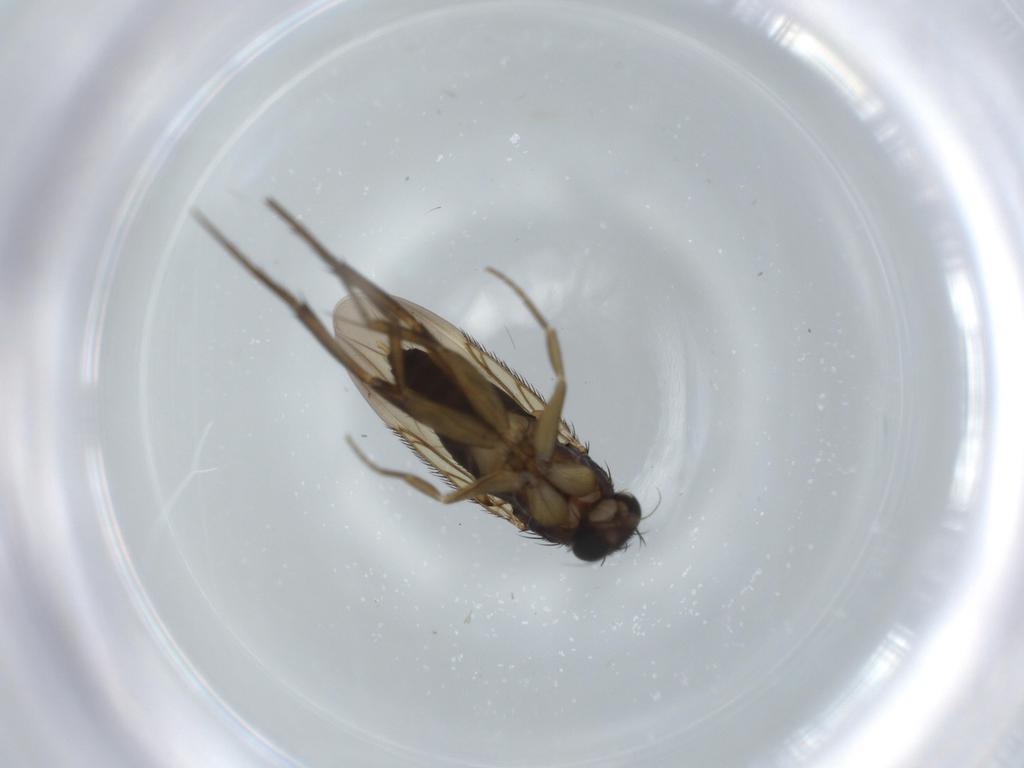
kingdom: Animalia
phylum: Arthropoda
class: Insecta
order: Diptera
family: Phoridae
